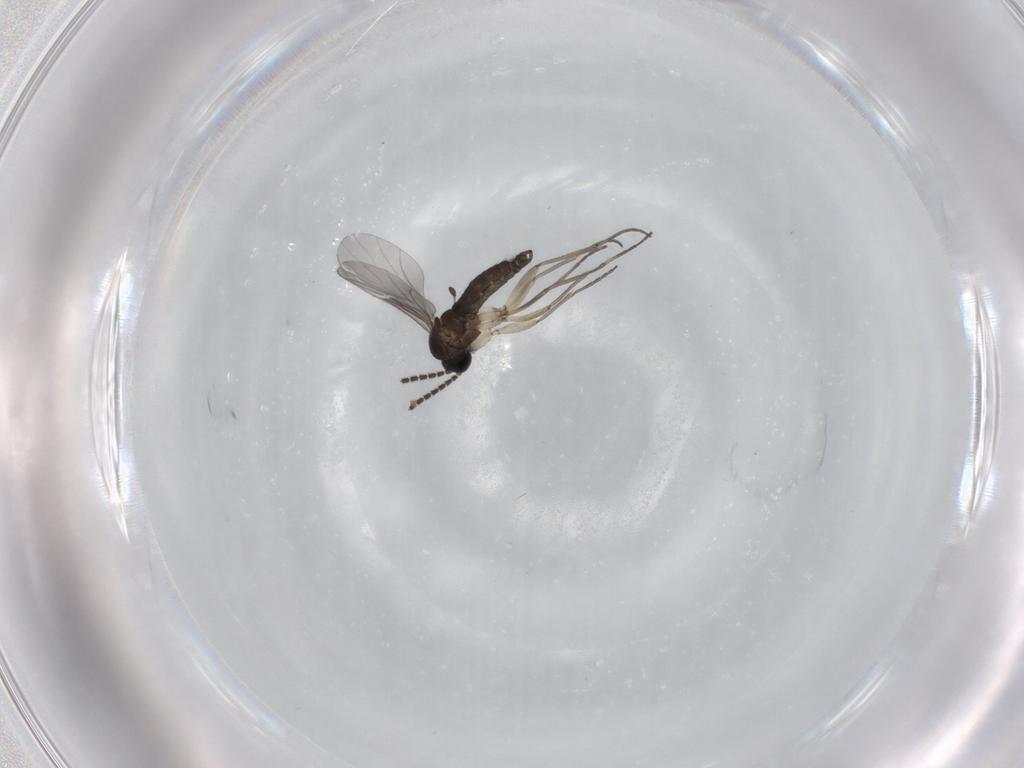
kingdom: Animalia
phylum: Arthropoda
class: Insecta
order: Diptera
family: Sciaridae
